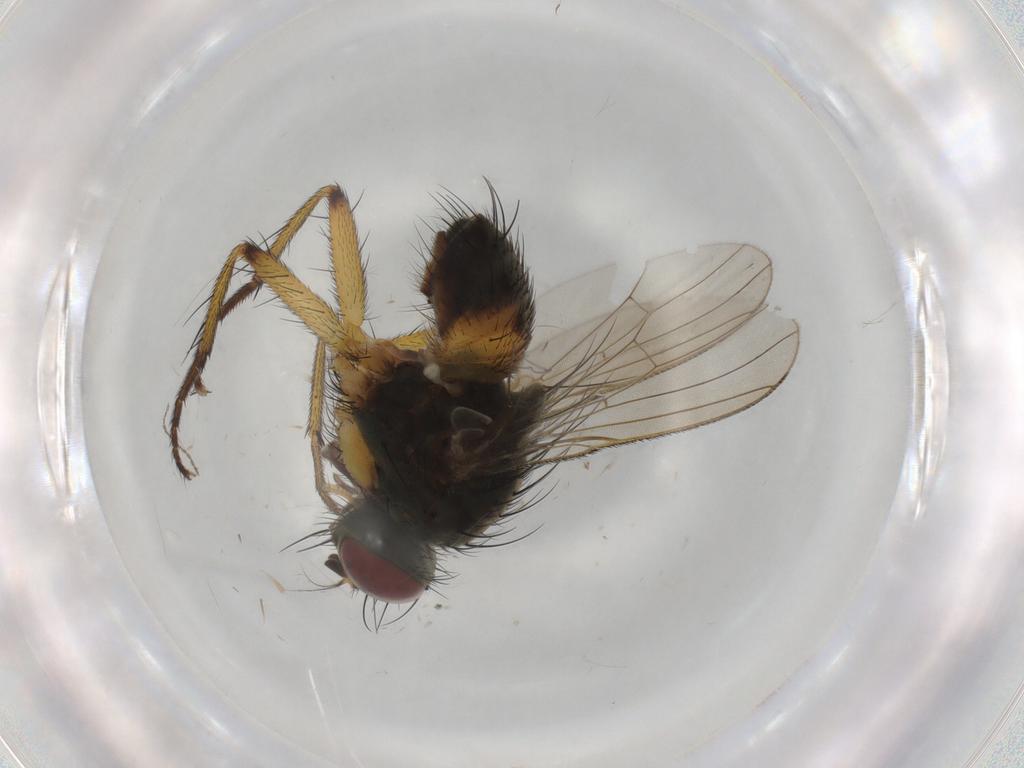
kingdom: Animalia
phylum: Arthropoda
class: Insecta
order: Diptera
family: Muscidae
